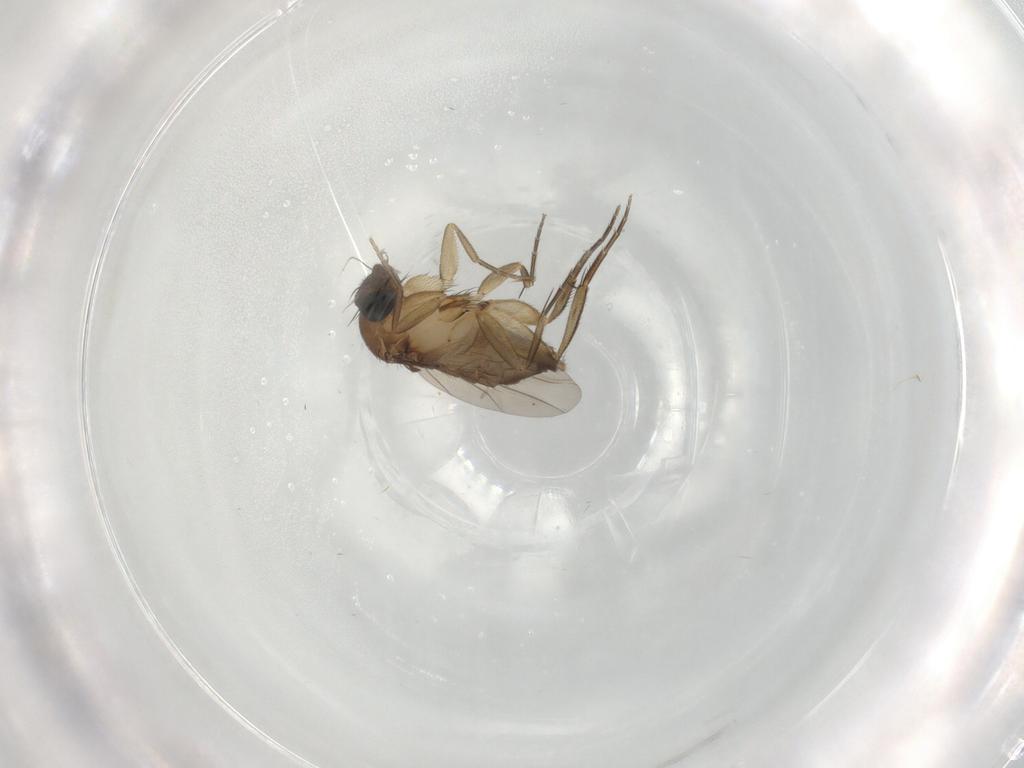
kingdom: Animalia
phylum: Arthropoda
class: Insecta
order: Diptera
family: Phoridae
